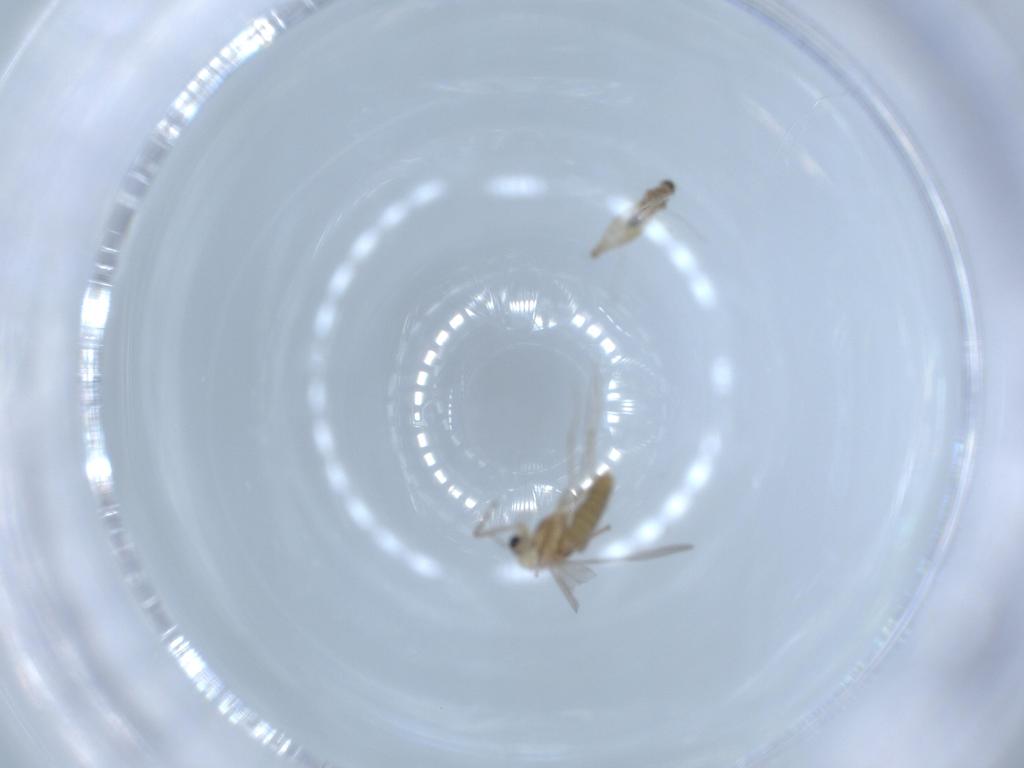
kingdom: Animalia
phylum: Arthropoda
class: Insecta
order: Diptera
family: Chironomidae
